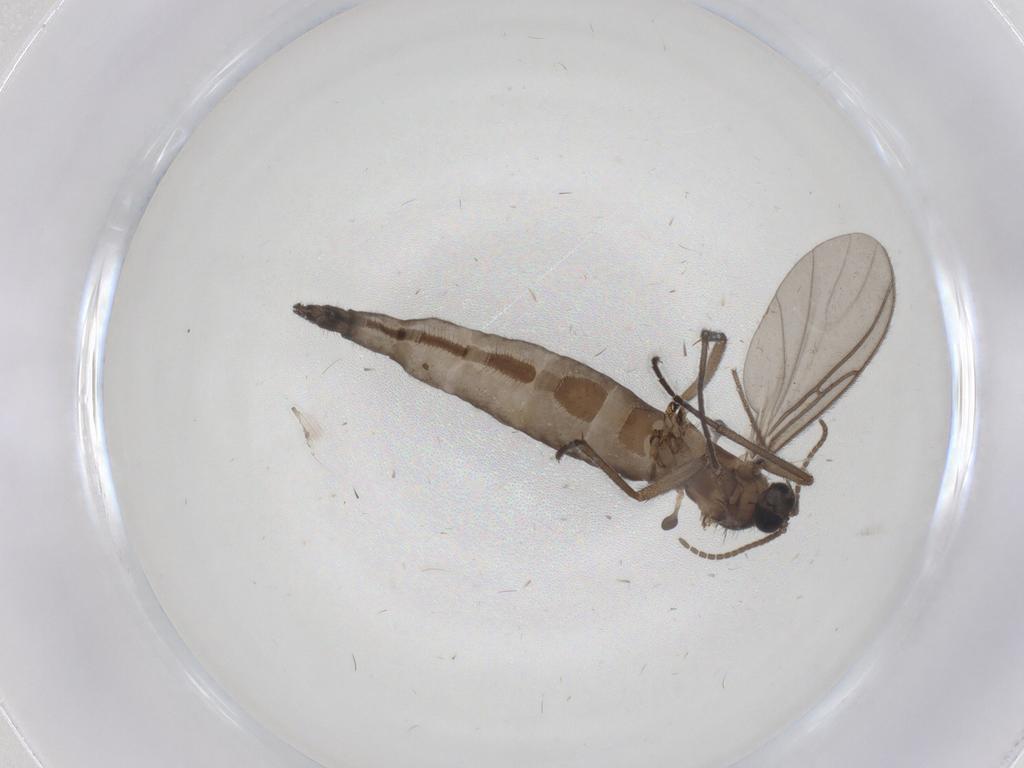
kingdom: Animalia
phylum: Arthropoda
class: Insecta
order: Diptera
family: Sciaridae
